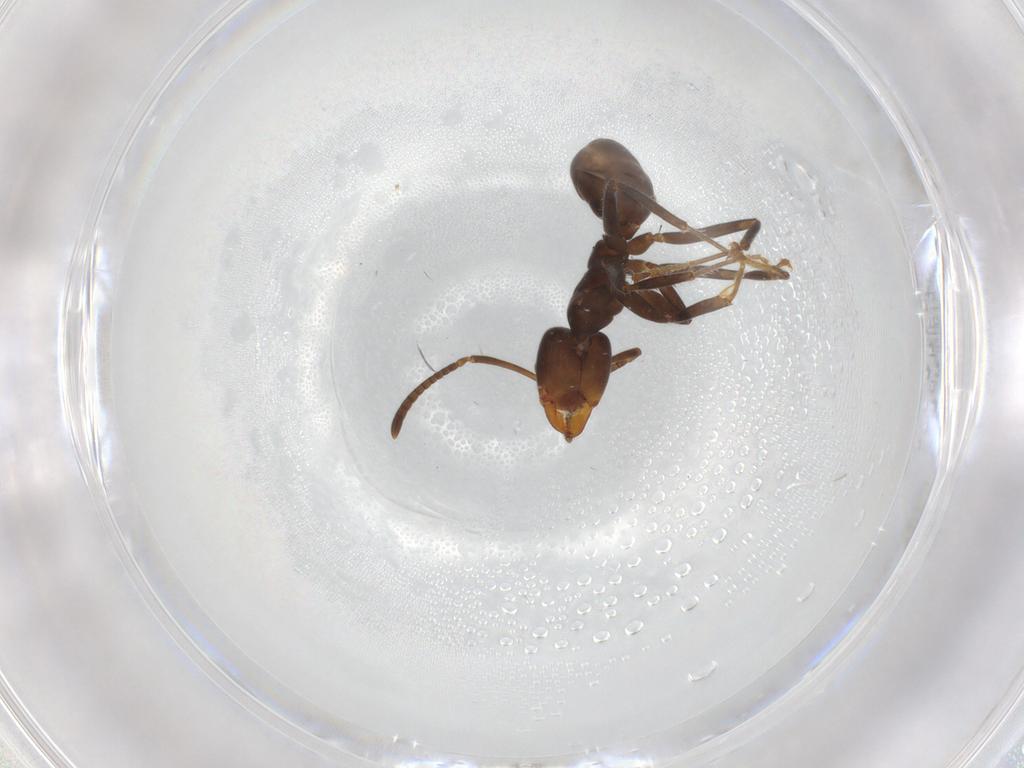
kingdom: Animalia
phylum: Arthropoda
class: Insecta
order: Hymenoptera
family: Formicidae
